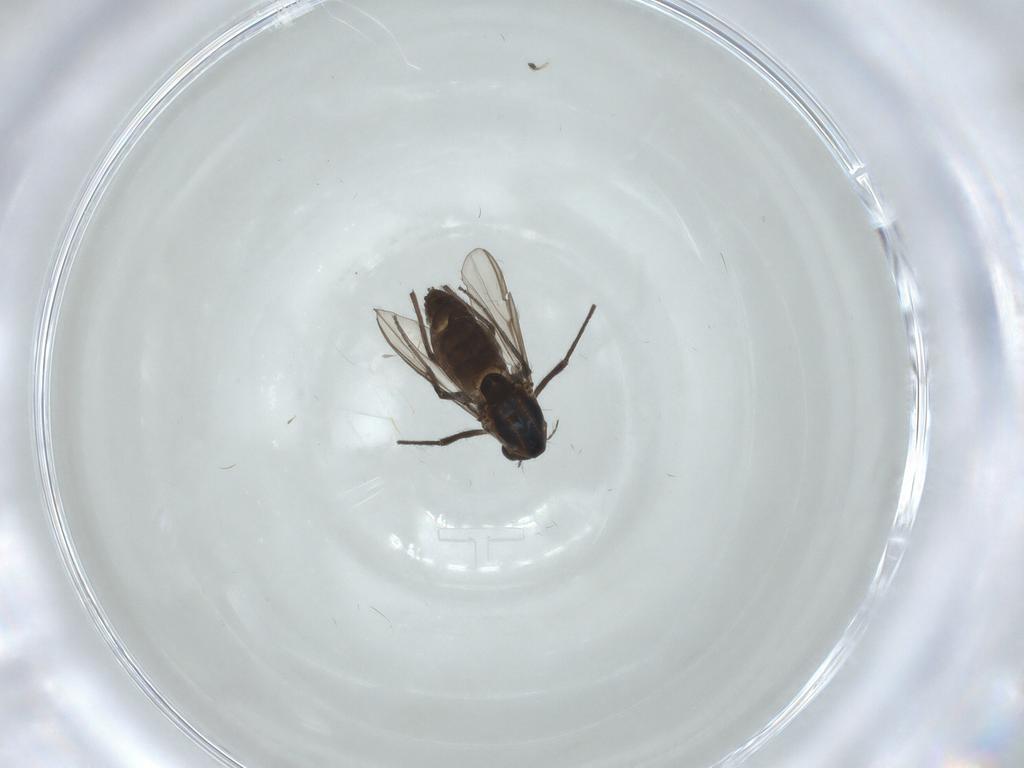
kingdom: Animalia
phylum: Arthropoda
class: Insecta
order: Diptera
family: Chironomidae
